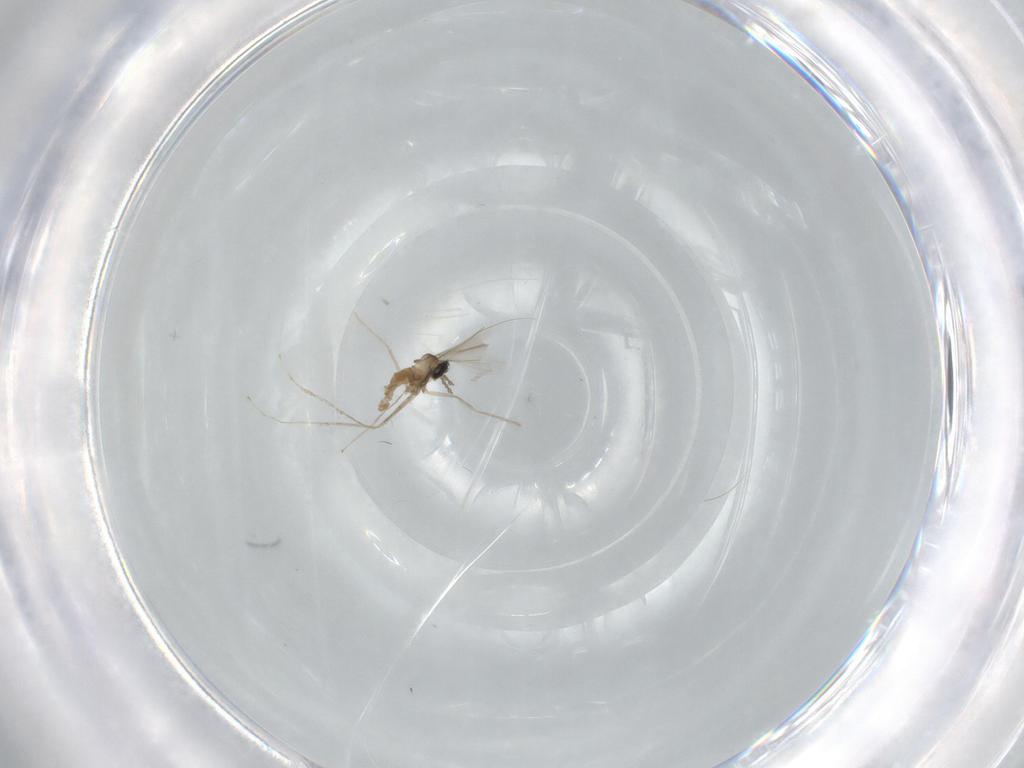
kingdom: Animalia
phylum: Arthropoda
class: Insecta
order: Diptera
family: Cecidomyiidae
